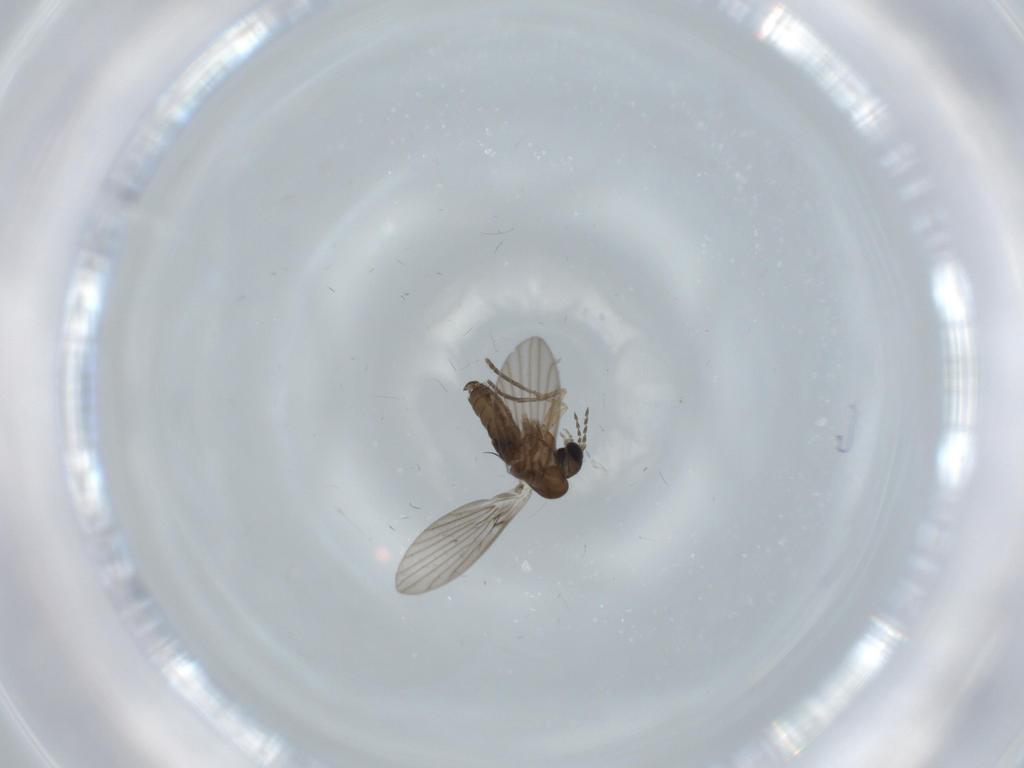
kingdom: Animalia
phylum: Arthropoda
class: Insecta
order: Diptera
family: Psychodidae
